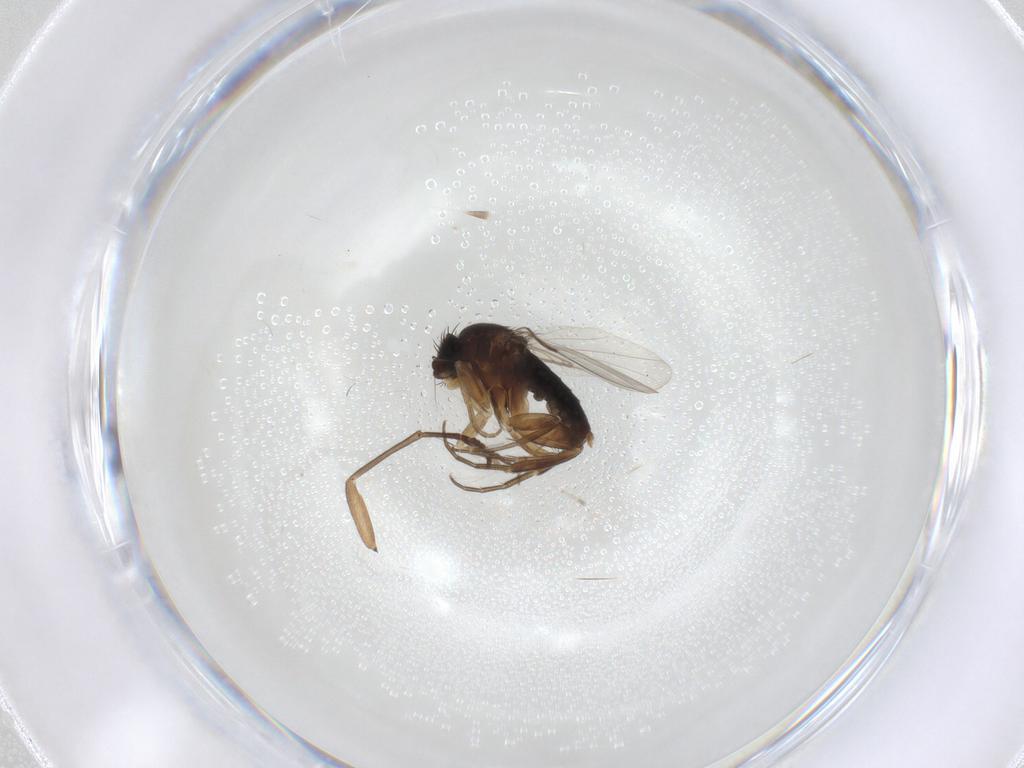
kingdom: Animalia
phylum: Arthropoda
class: Insecta
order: Diptera
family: Phoridae
